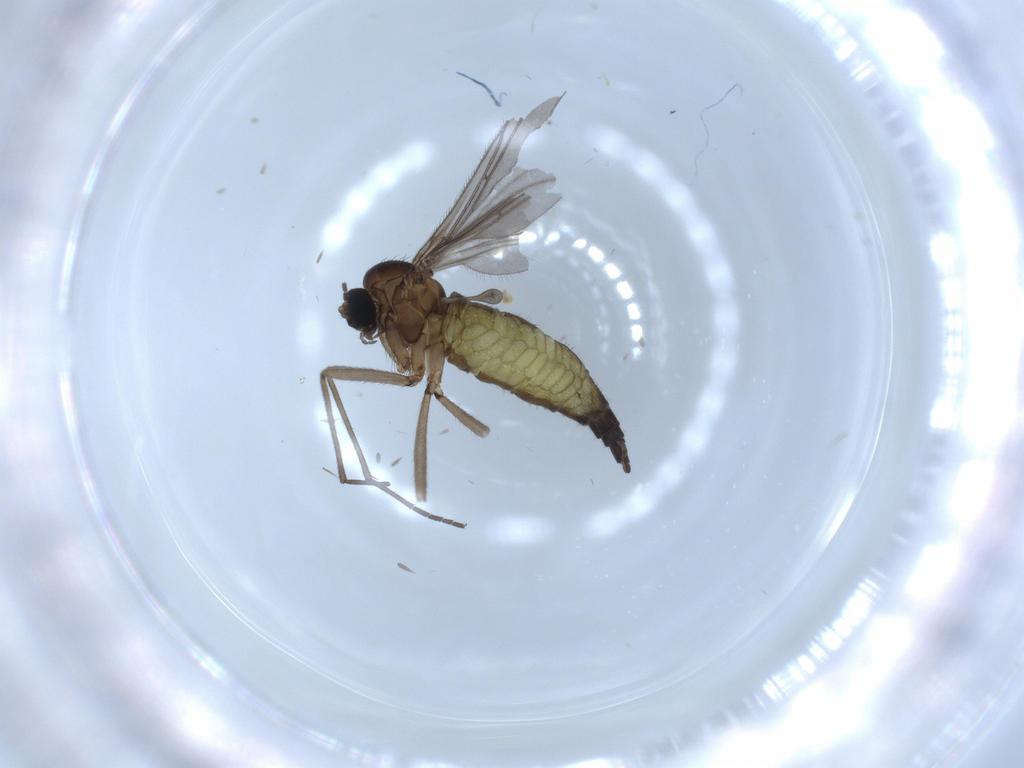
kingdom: Animalia
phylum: Arthropoda
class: Insecta
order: Diptera
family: Sciaridae
